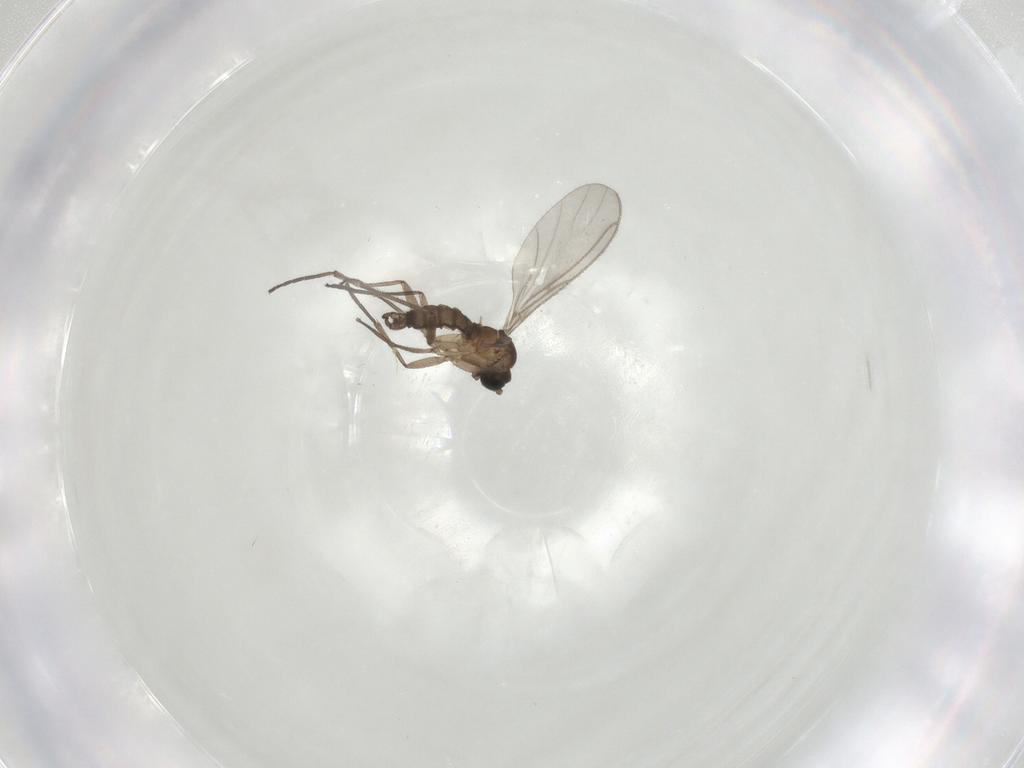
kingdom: Animalia
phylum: Arthropoda
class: Insecta
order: Diptera
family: Sciaridae
